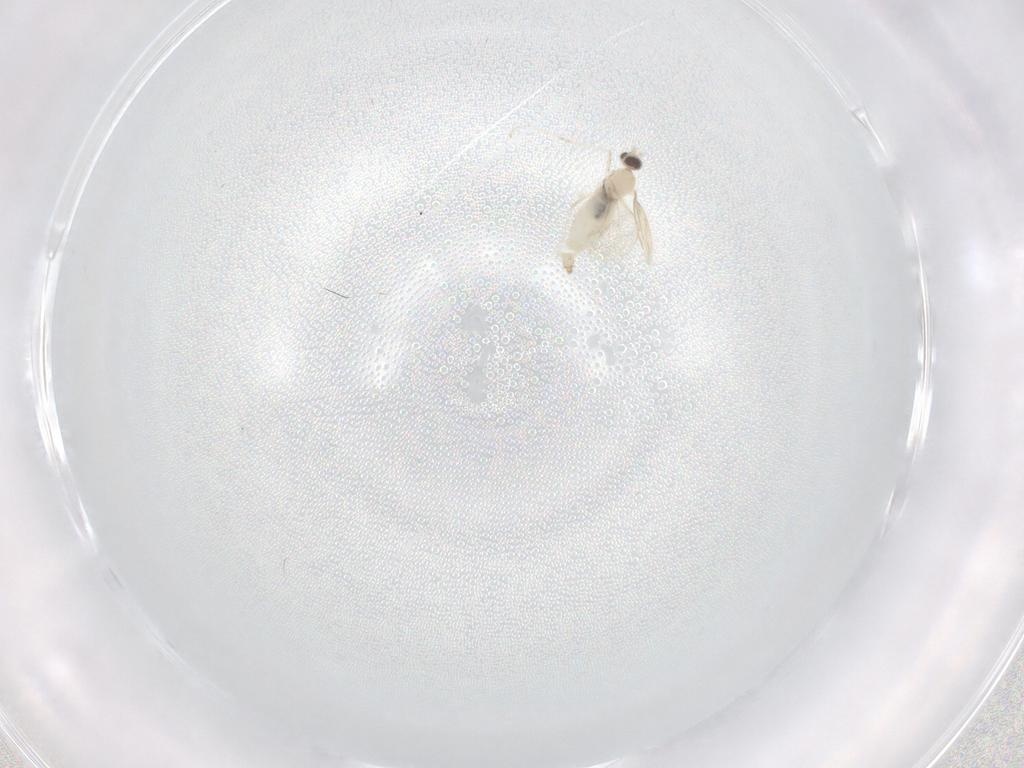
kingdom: Animalia
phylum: Arthropoda
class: Insecta
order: Diptera
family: Cecidomyiidae
